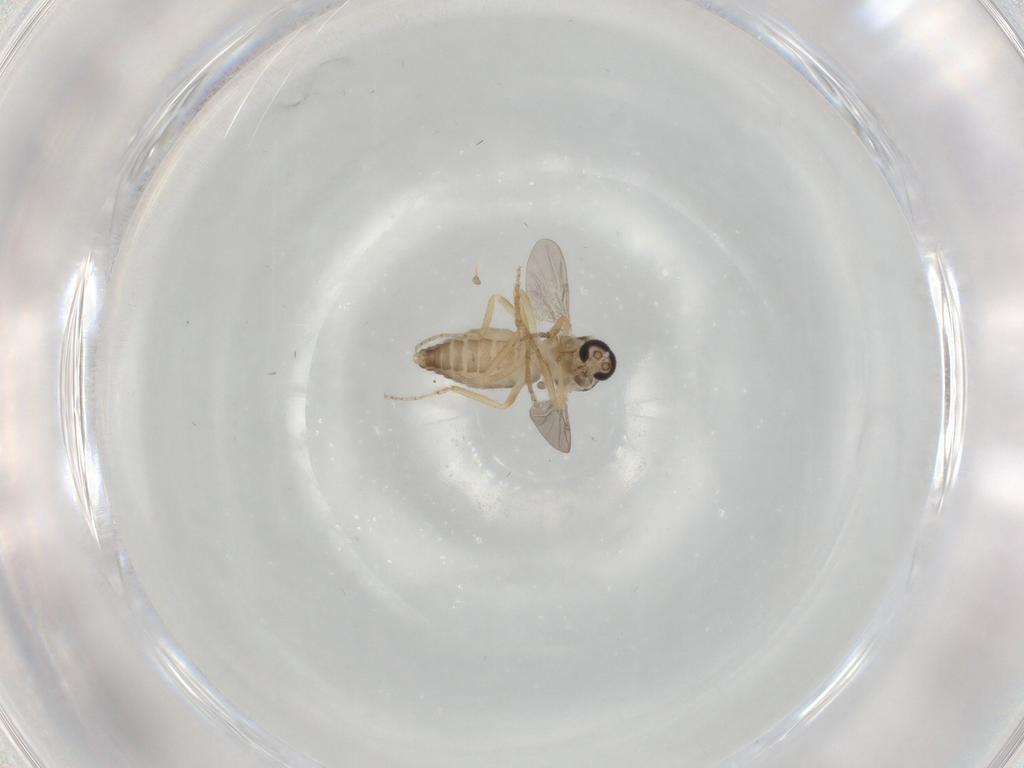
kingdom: Animalia
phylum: Arthropoda
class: Insecta
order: Diptera
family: Ceratopogonidae
